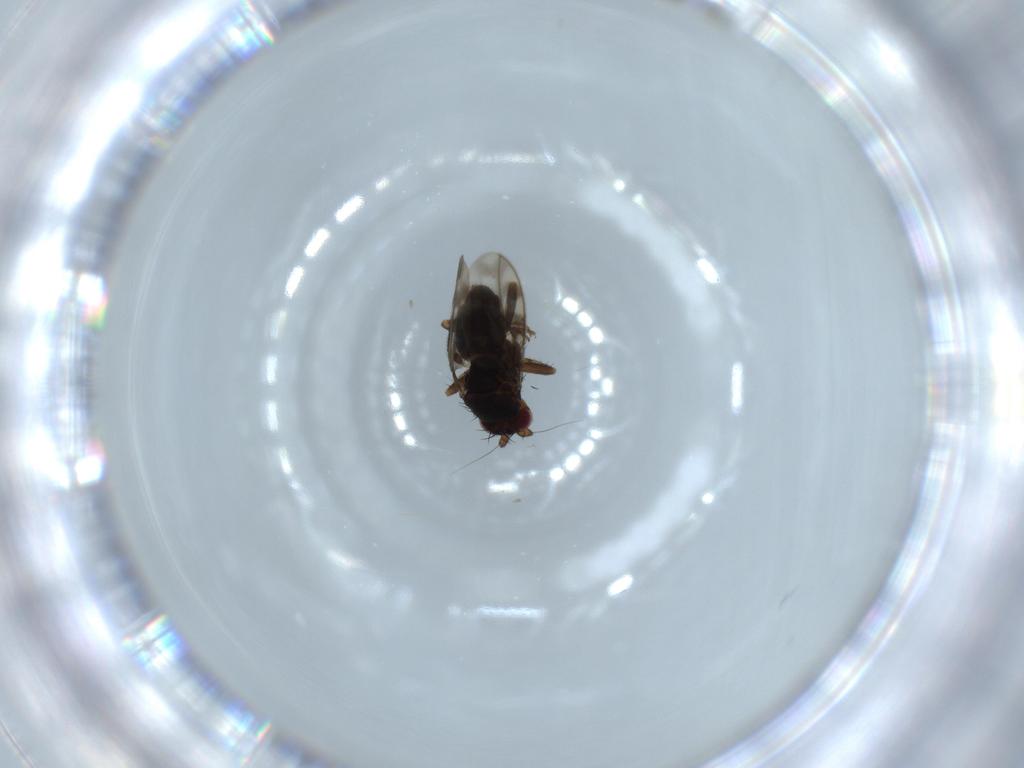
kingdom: Animalia
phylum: Arthropoda
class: Insecta
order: Diptera
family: Sphaeroceridae
